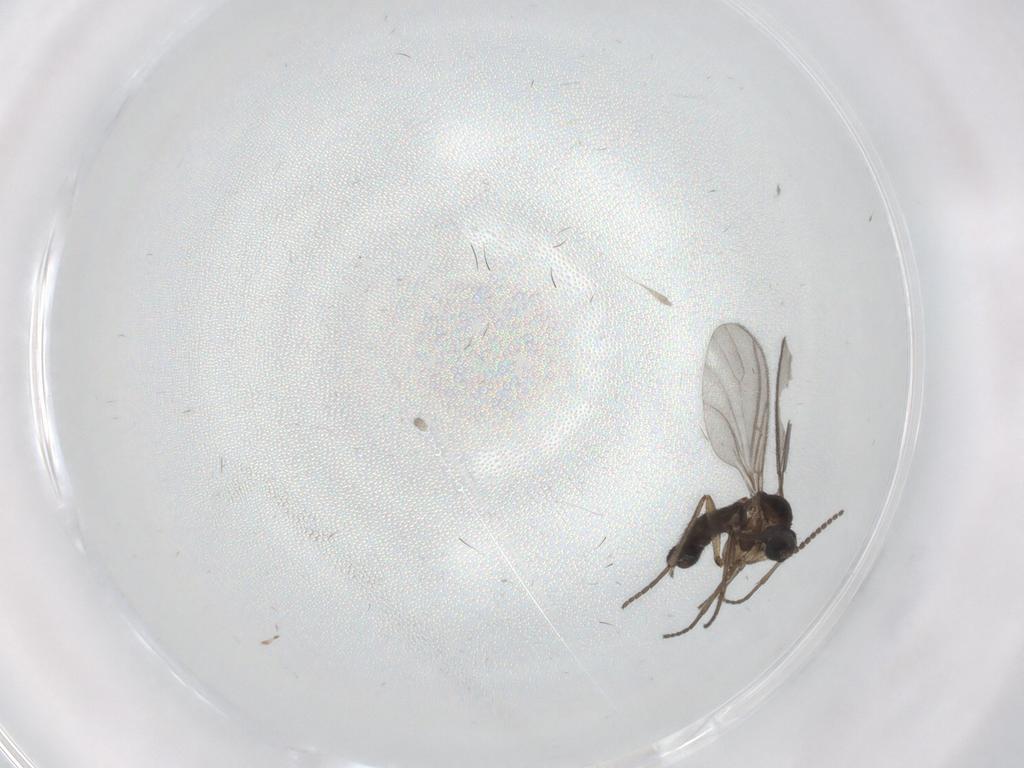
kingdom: Animalia
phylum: Arthropoda
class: Insecta
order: Diptera
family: Sciaridae
